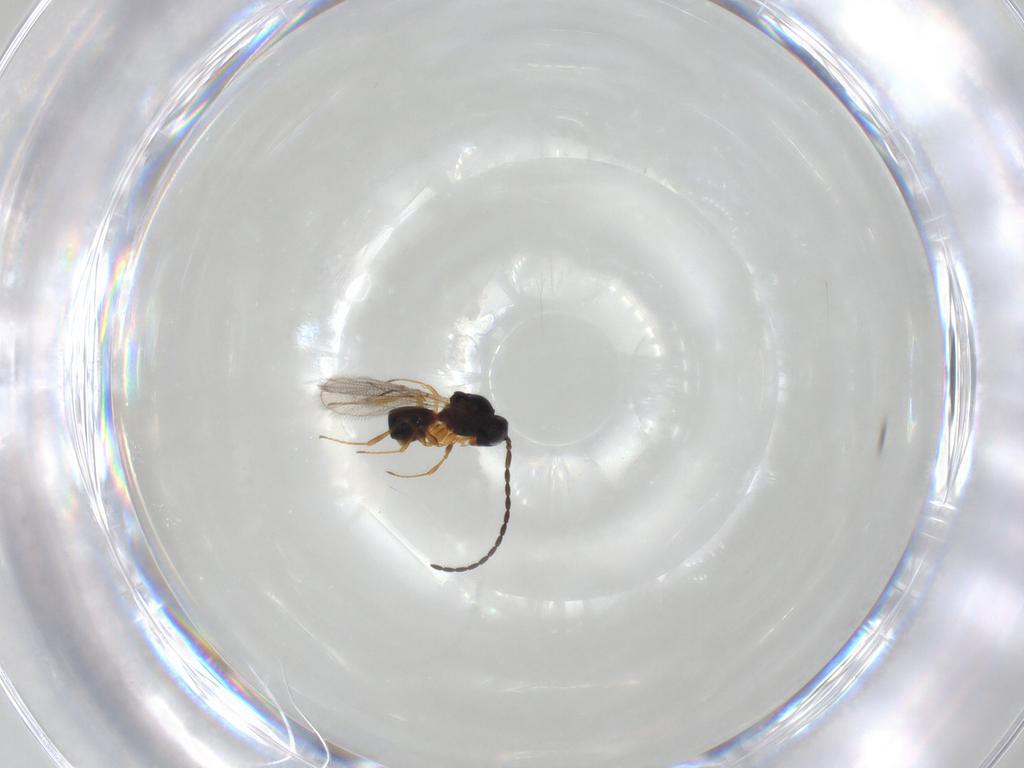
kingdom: Animalia
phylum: Arthropoda
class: Insecta
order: Hymenoptera
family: Figitidae
